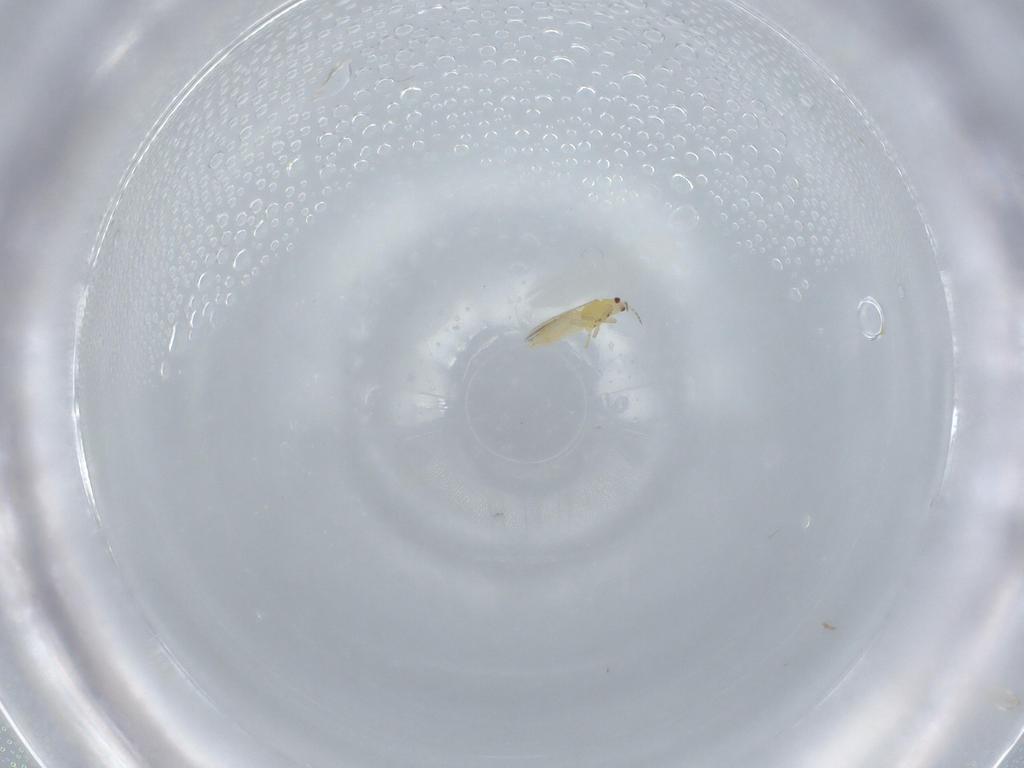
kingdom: Animalia
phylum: Arthropoda
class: Insecta
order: Thysanoptera
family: Thripidae
